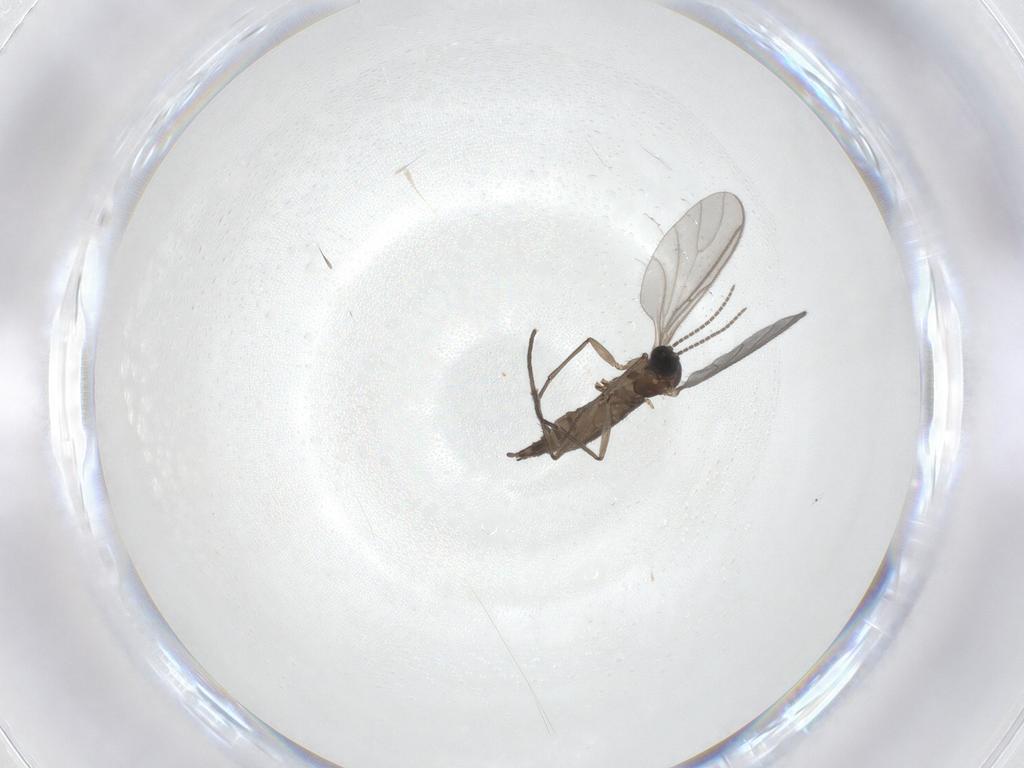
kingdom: Animalia
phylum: Arthropoda
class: Insecta
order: Diptera
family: Sciaridae
